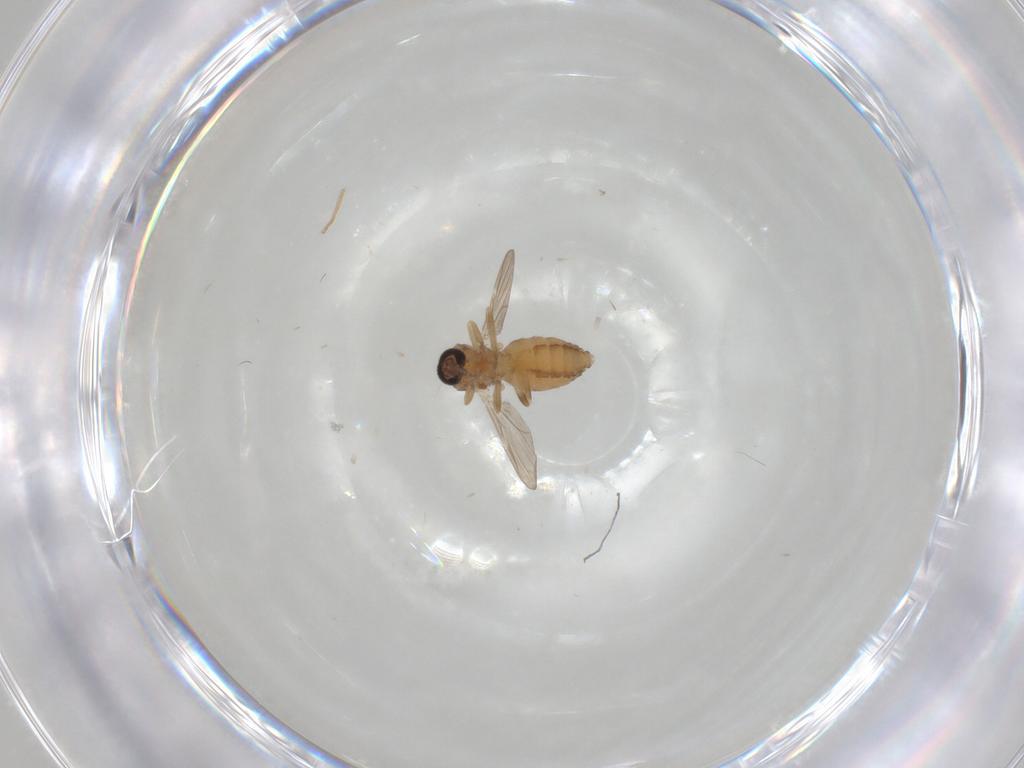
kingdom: Animalia
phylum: Arthropoda
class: Insecta
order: Diptera
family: Ceratopogonidae
